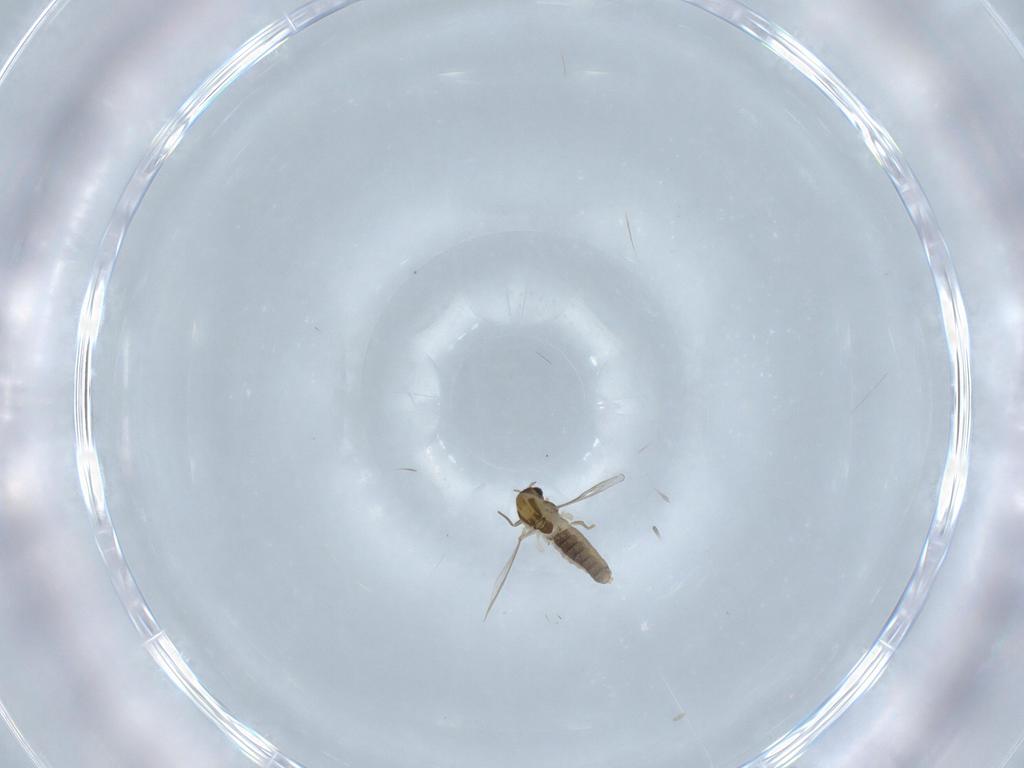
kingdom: Animalia
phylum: Arthropoda
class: Insecta
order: Diptera
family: Chironomidae
